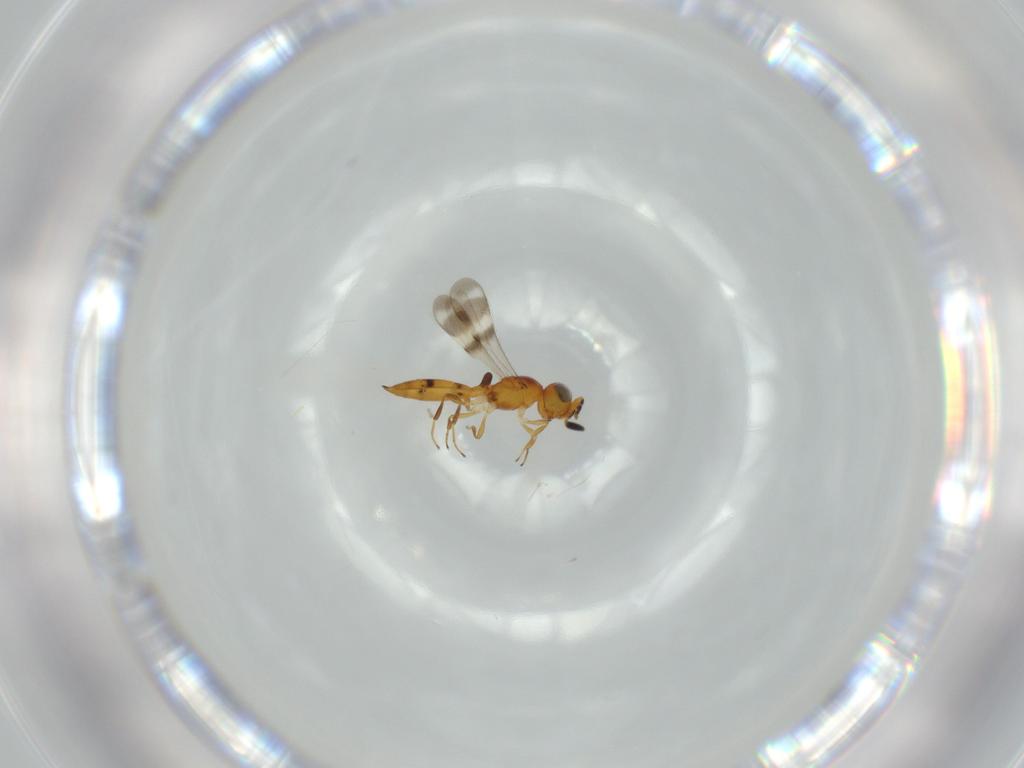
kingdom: Animalia
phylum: Arthropoda
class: Insecta
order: Hymenoptera
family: Scelionidae
